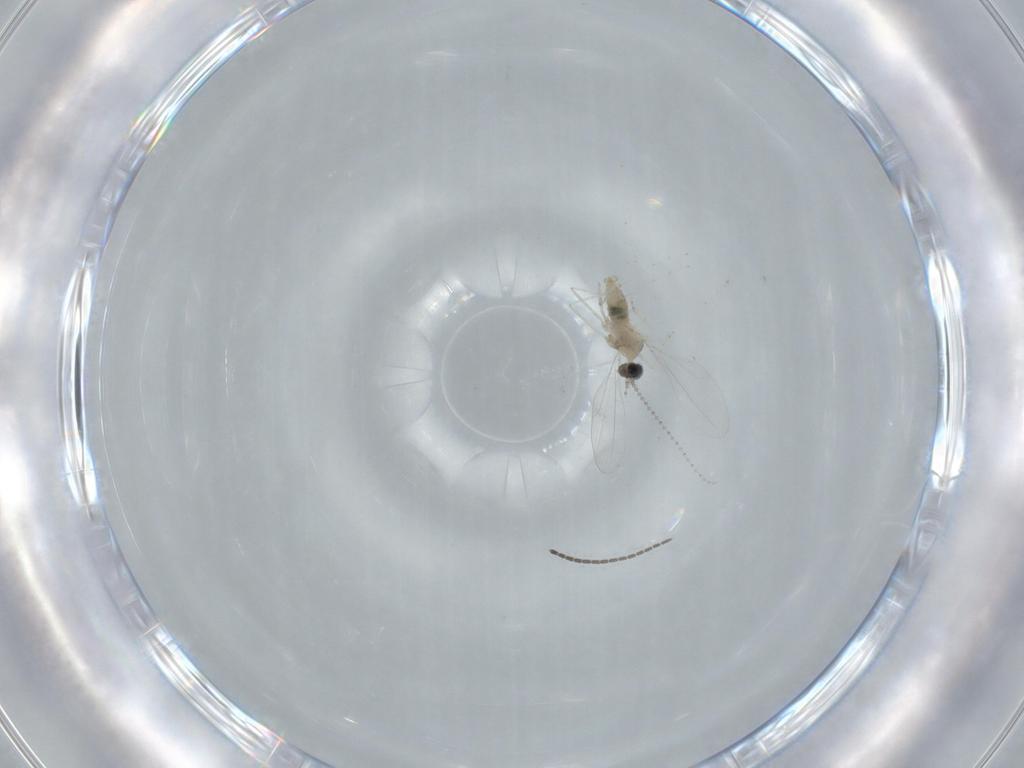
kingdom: Animalia
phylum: Arthropoda
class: Insecta
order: Diptera
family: Cecidomyiidae
